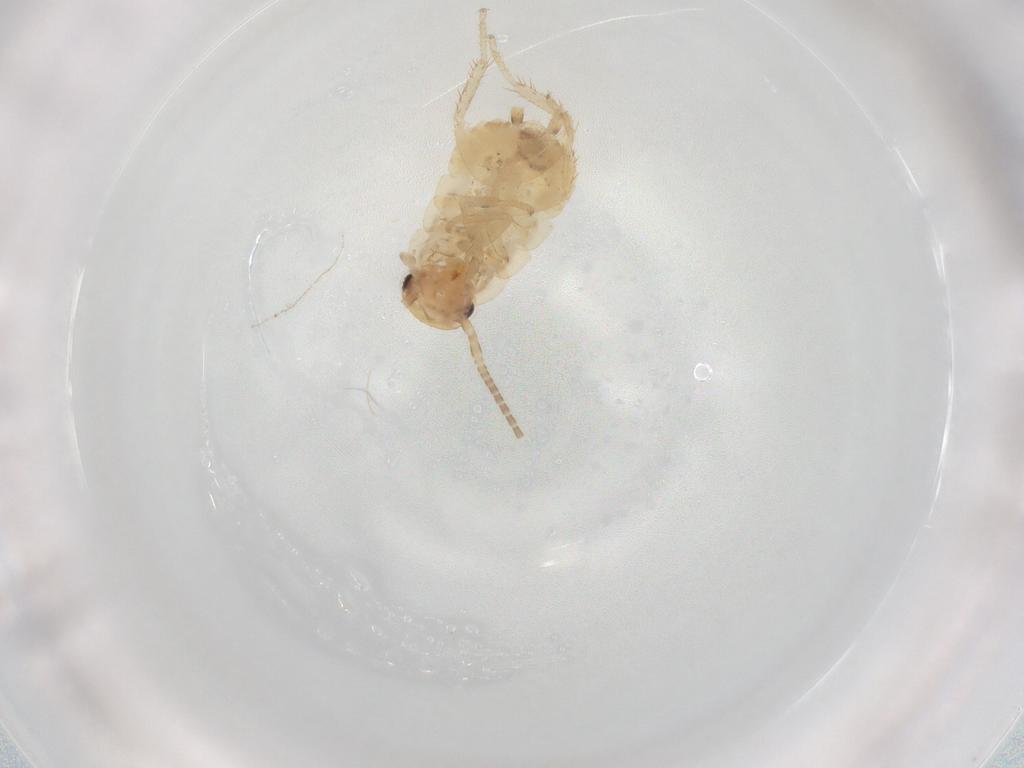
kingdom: Animalia
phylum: Arthropoda
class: Insecta
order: Blattodea
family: Ectobiidae
